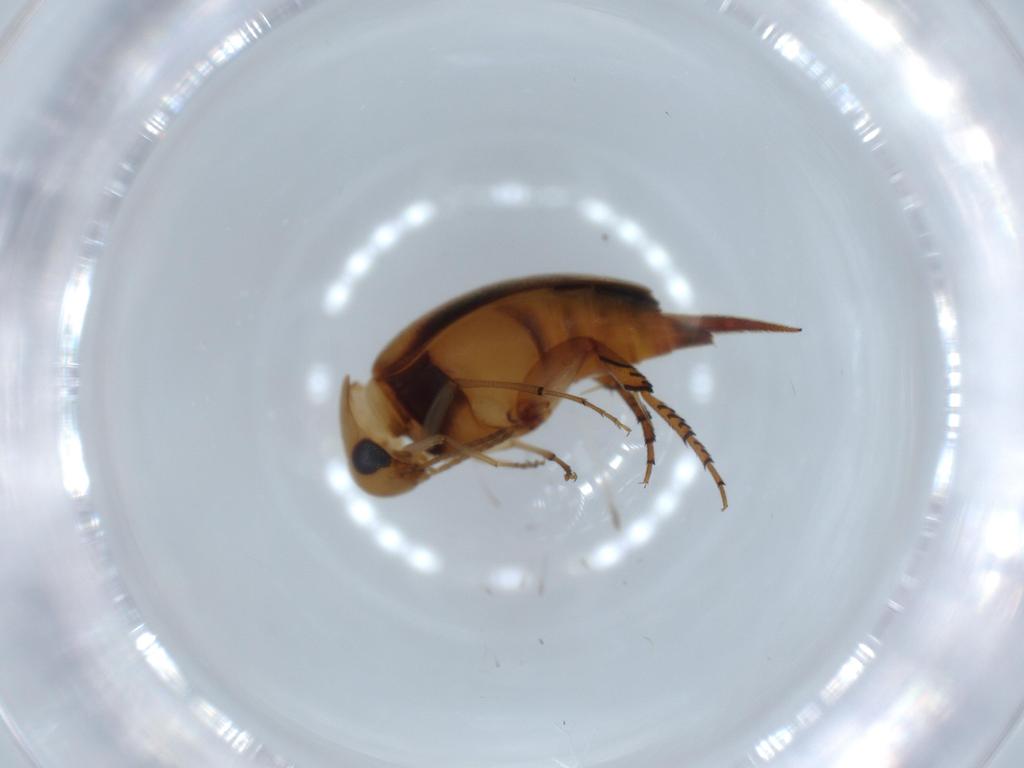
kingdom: Animalia
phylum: Arthropoda
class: Insecta
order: Coleoptera
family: Mordellidae
